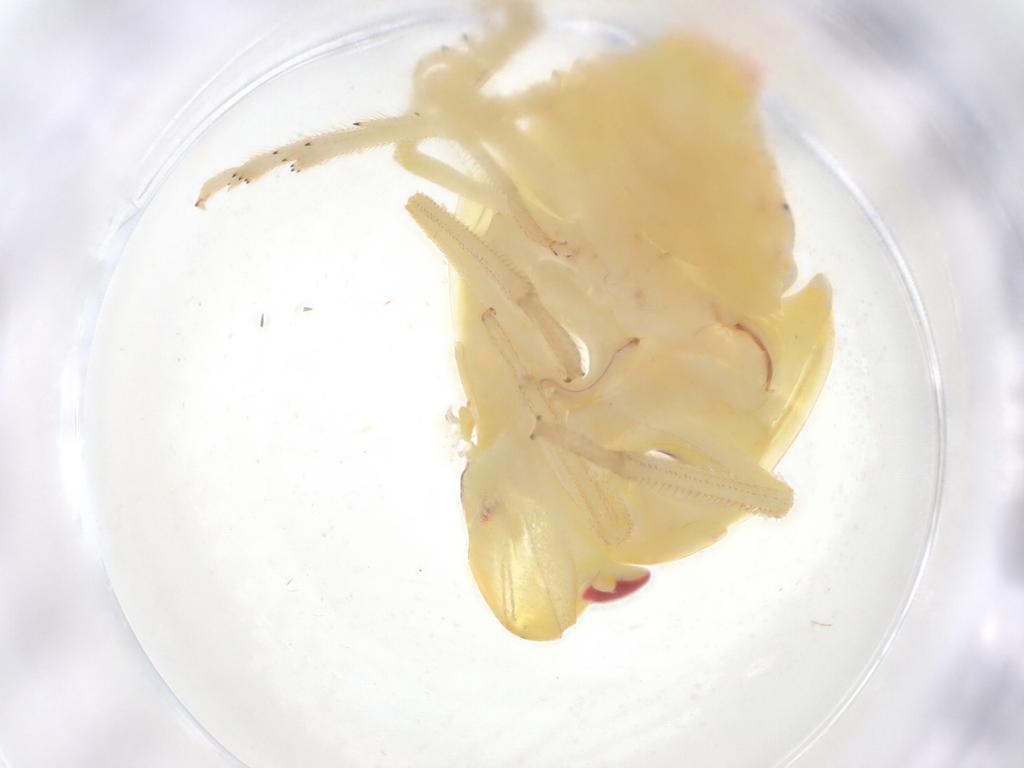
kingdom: Animalia
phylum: Arthropoda
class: Insecta
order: Hemiptera
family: Tropiduchidae
